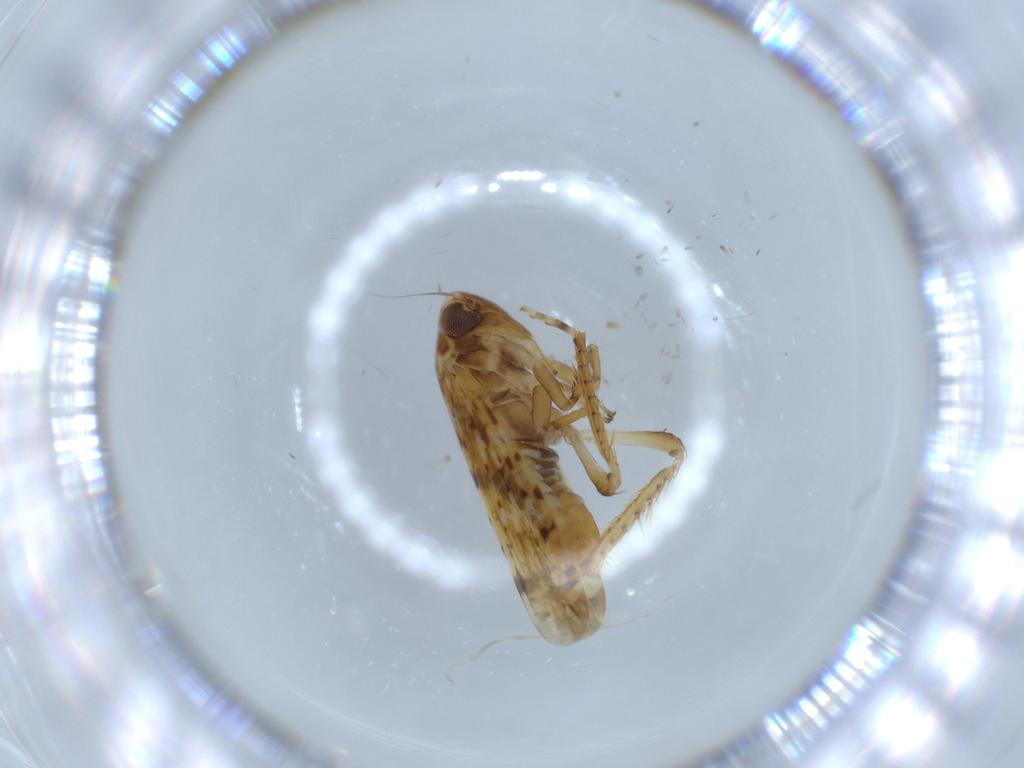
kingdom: Animalia
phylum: Arthropoda
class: Insecta
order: Hemiptera
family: Cicadellidae
